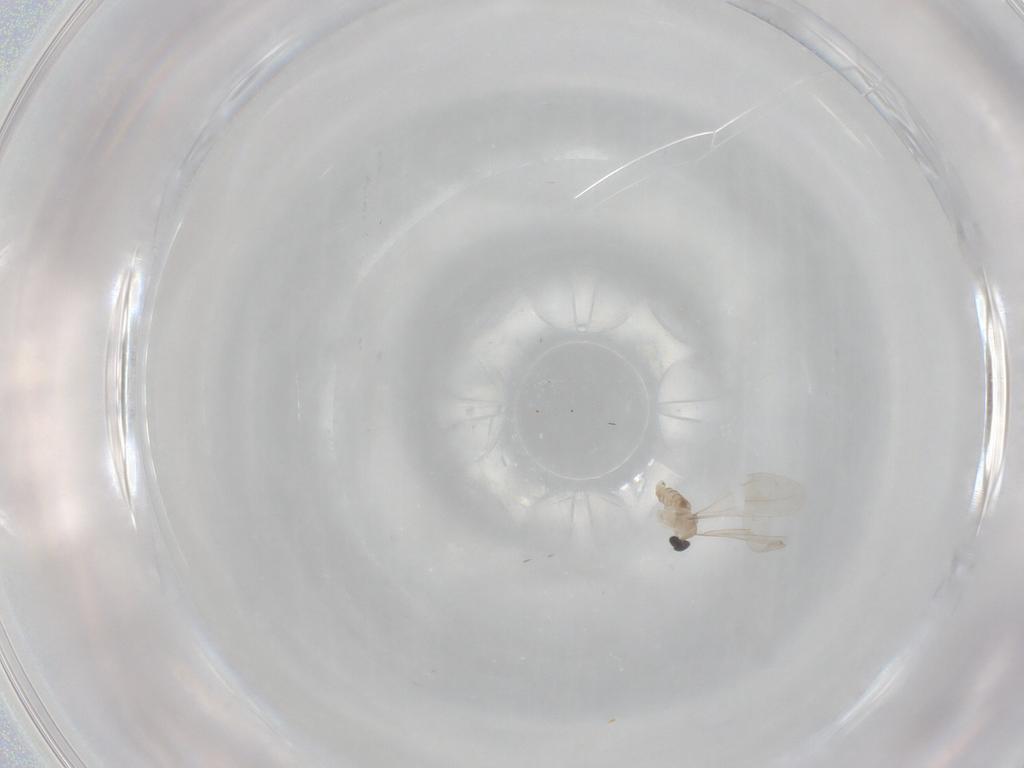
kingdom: Animalia
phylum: Arthropoda
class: Insecta
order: Diptera
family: Cecidomyiidae
